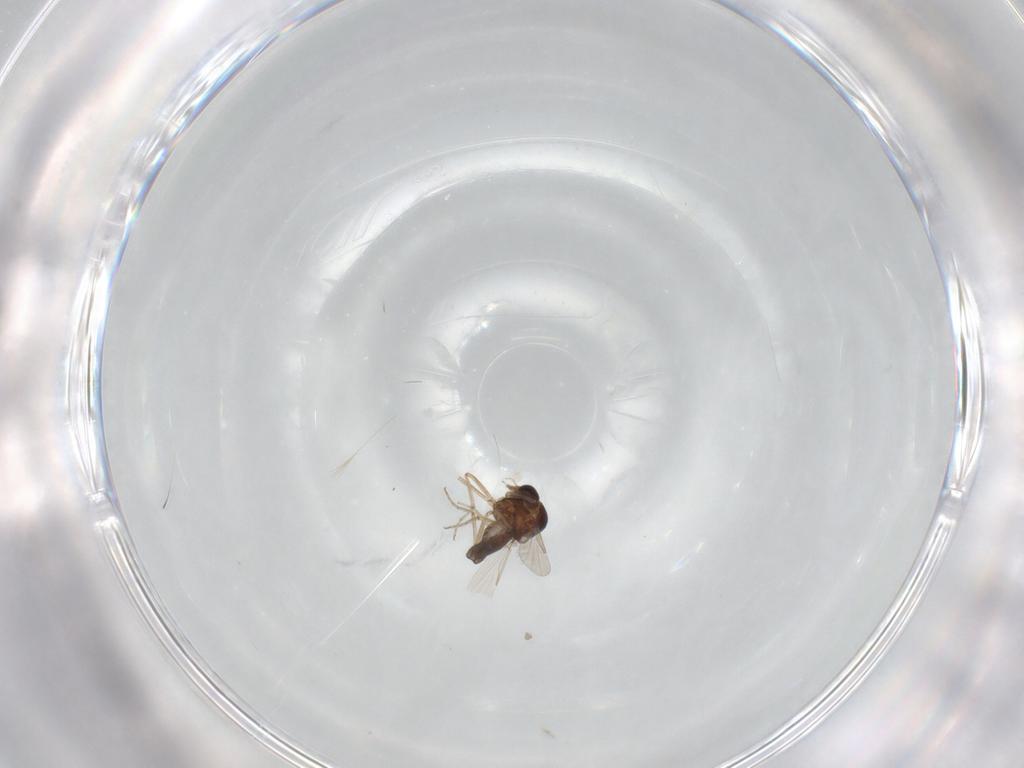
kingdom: Animalia
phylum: Arthropoda
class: Insecta
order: Diptera
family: Ceratopogonidae
